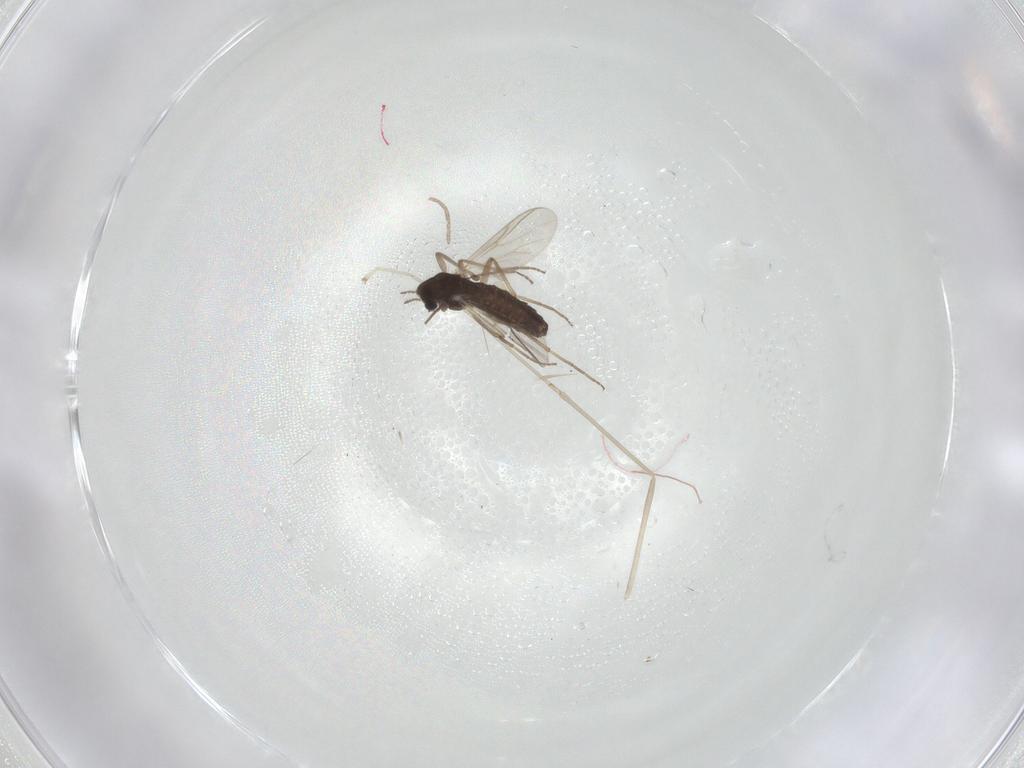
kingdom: Animalia
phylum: Arthropoda
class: Insecta
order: Diptera
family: Chironomidae
